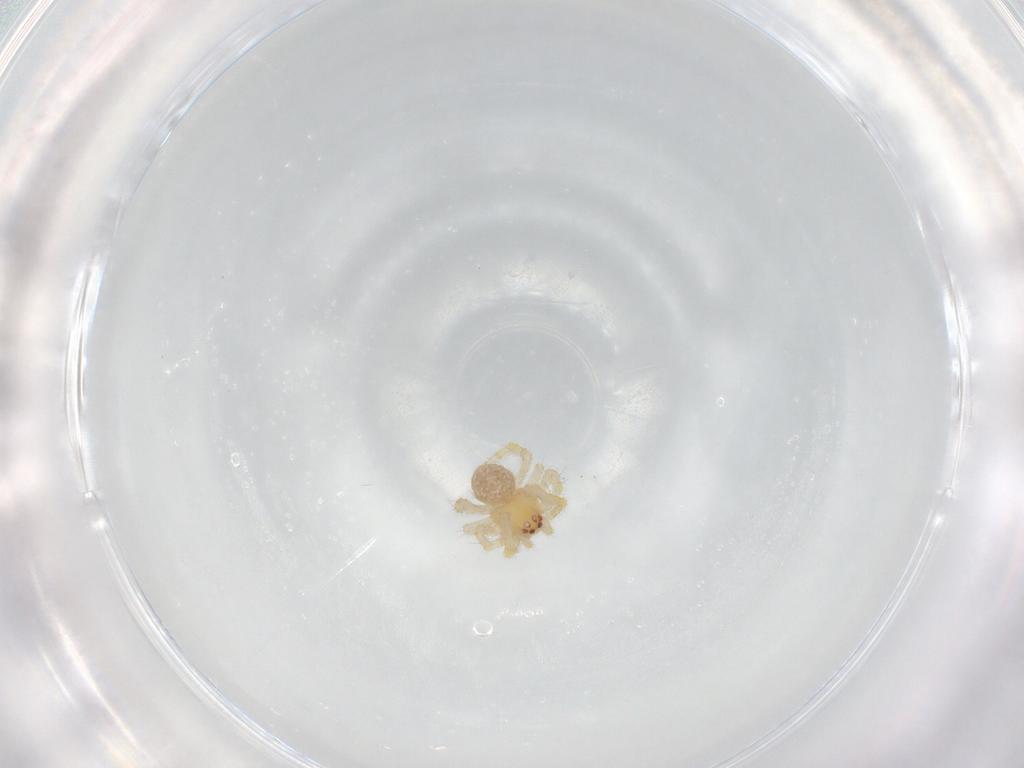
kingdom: Animalia
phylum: Arthropoda
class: Arachnida
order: Araneae
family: Theridiidae
